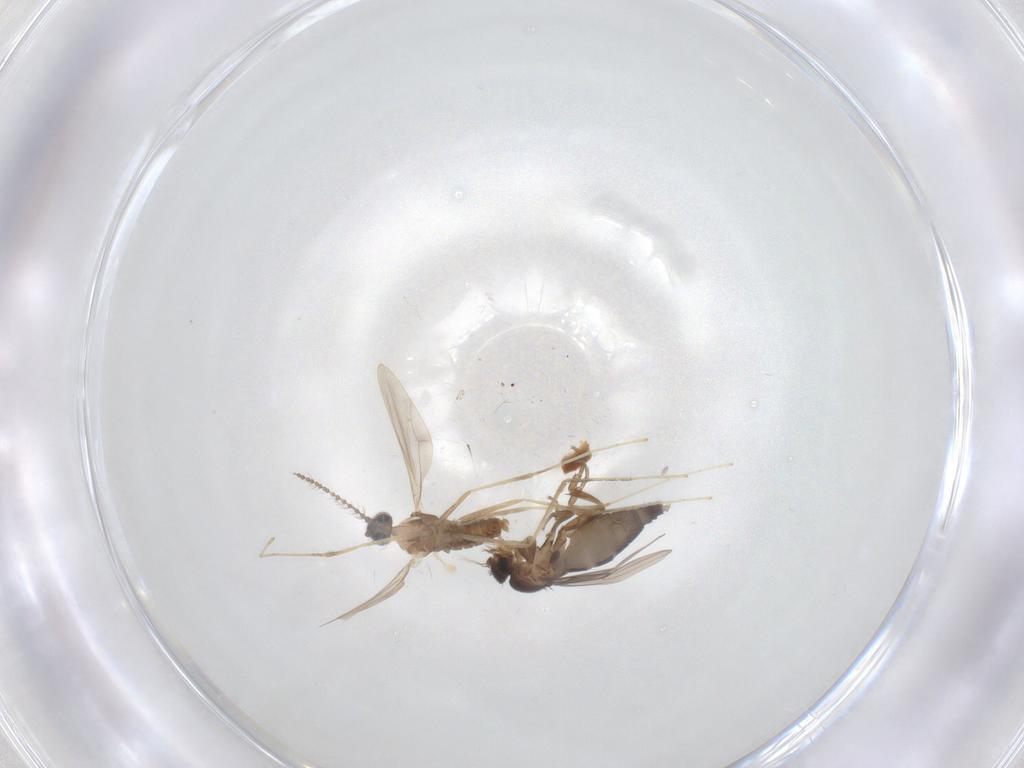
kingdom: Animalia
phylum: Arthropoda
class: Insecta
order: Diptera
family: Cecidomyiidae
